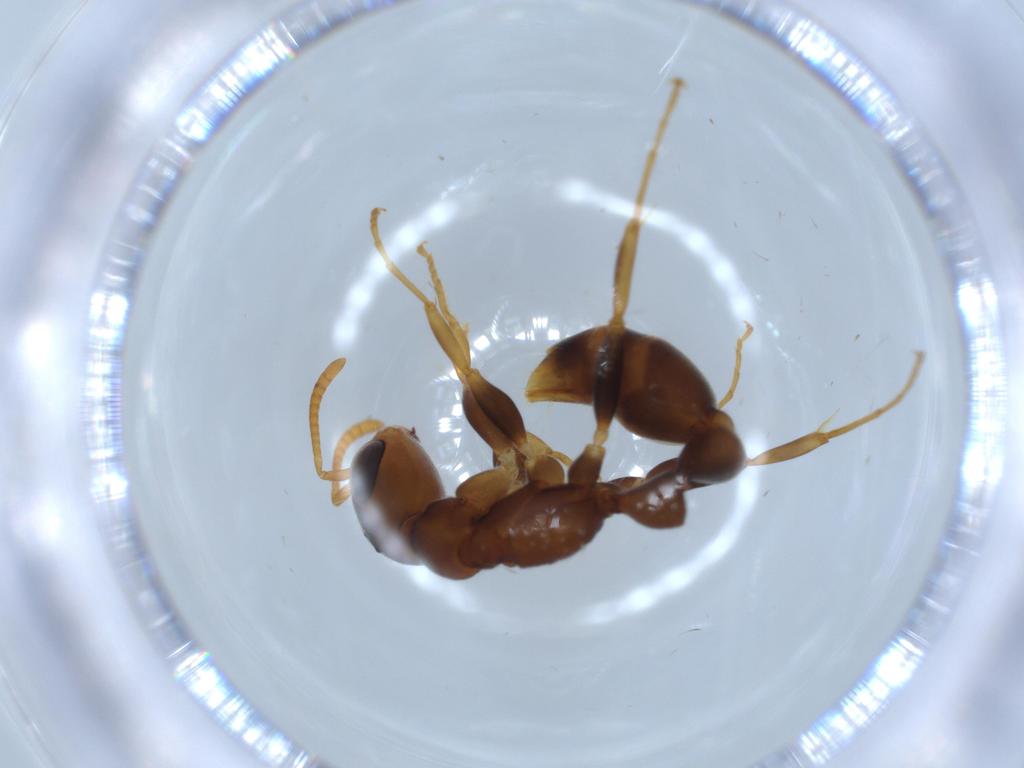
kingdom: Animalia
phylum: Arthropoda
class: Insecta
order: Hymenoptera
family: Formicidae
